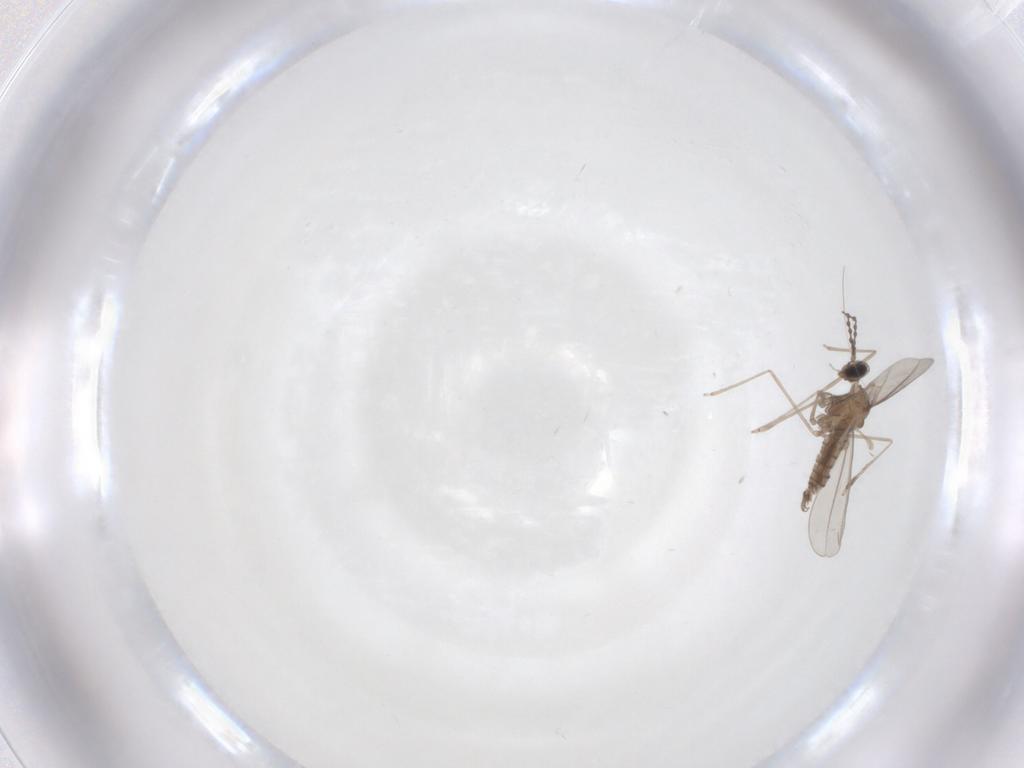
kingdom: Animalia
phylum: Arthropoda
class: Insecta
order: Diptera
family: Cecidomyiidae
